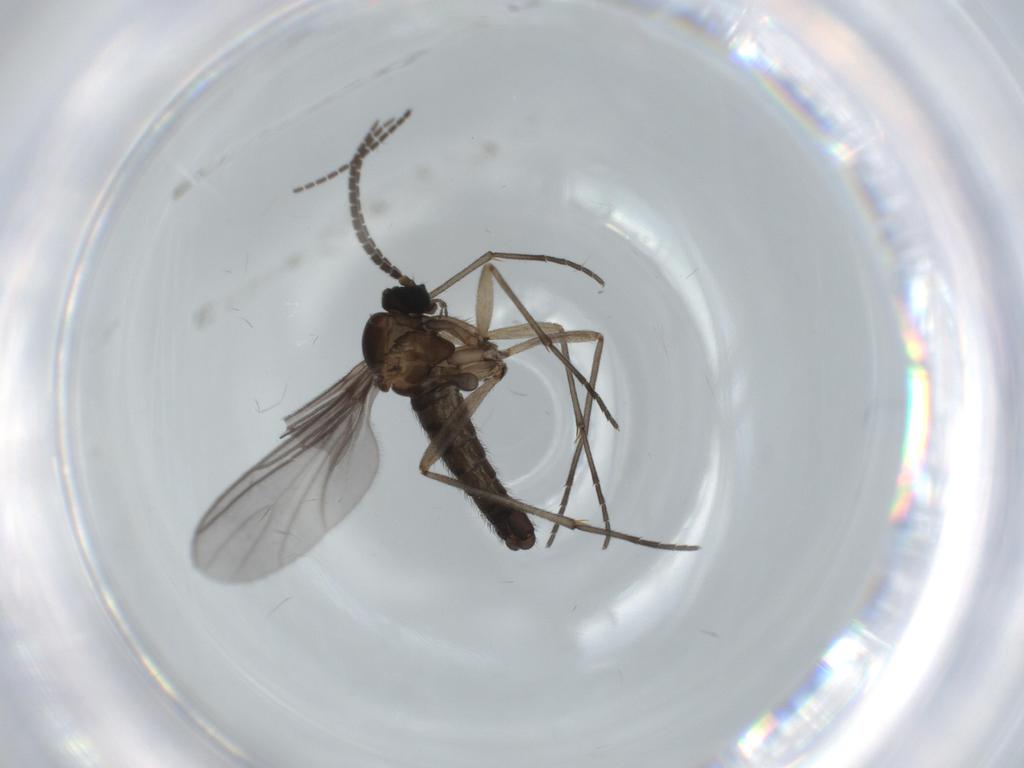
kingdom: Animalia
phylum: Arthropoda
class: Insecta
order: Diptera
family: Sciaridae
